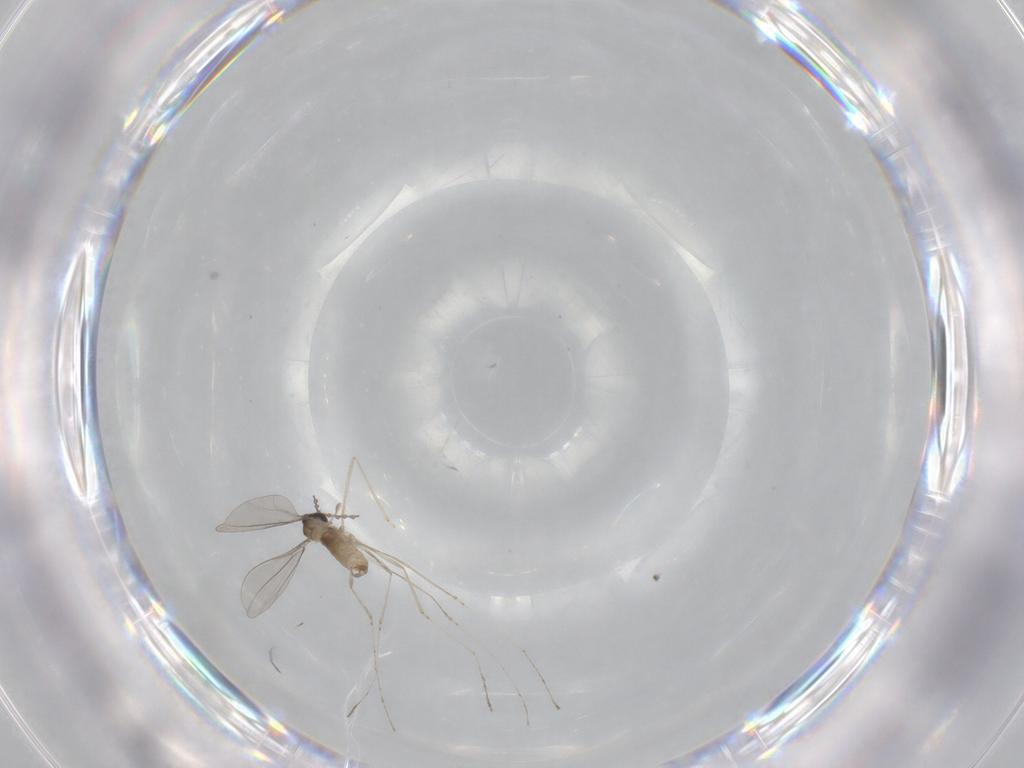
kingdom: Animalia
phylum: Arthropoda
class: Insecta
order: Diptera
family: Cecidomyiidae
